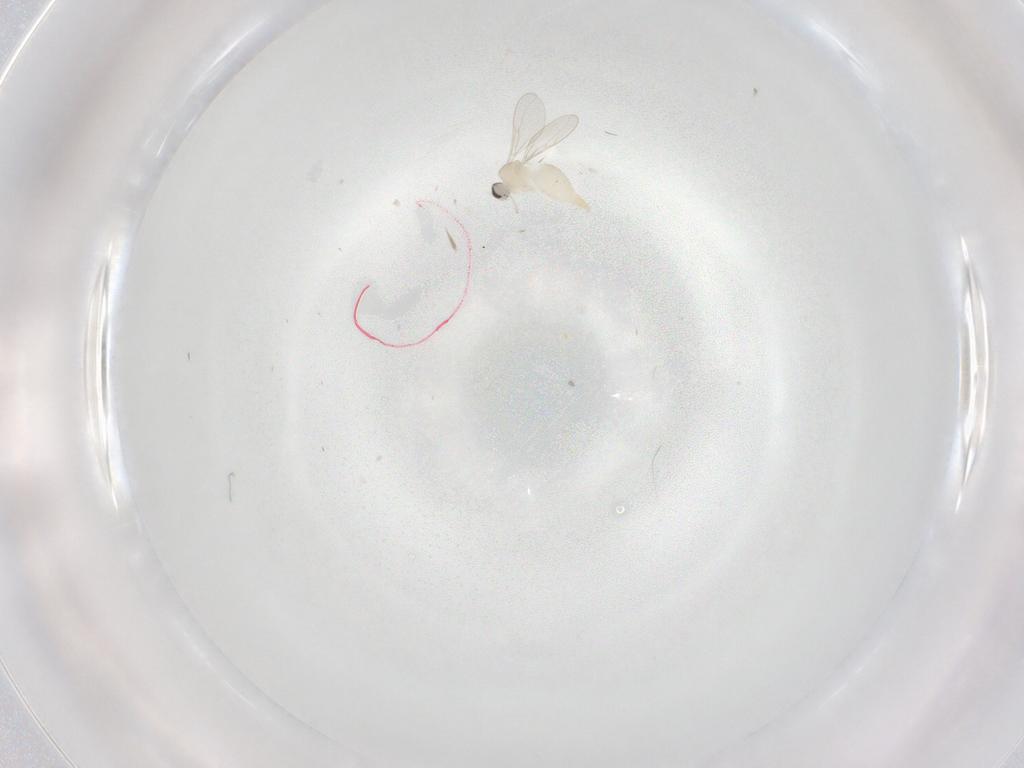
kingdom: Animalia
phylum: Arthropoda
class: Insecta
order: Diptera
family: Cecidomyiidae
